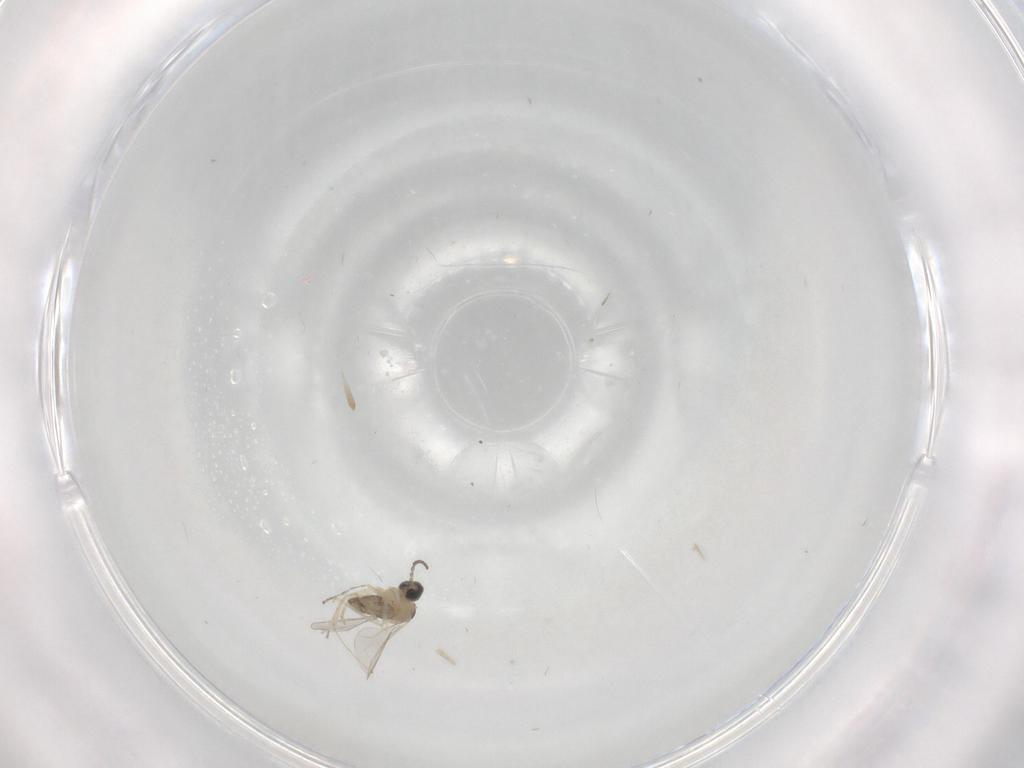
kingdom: Animalia
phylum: Arthropoda
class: Insecta
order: Diptera
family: Cecidomyiidae
